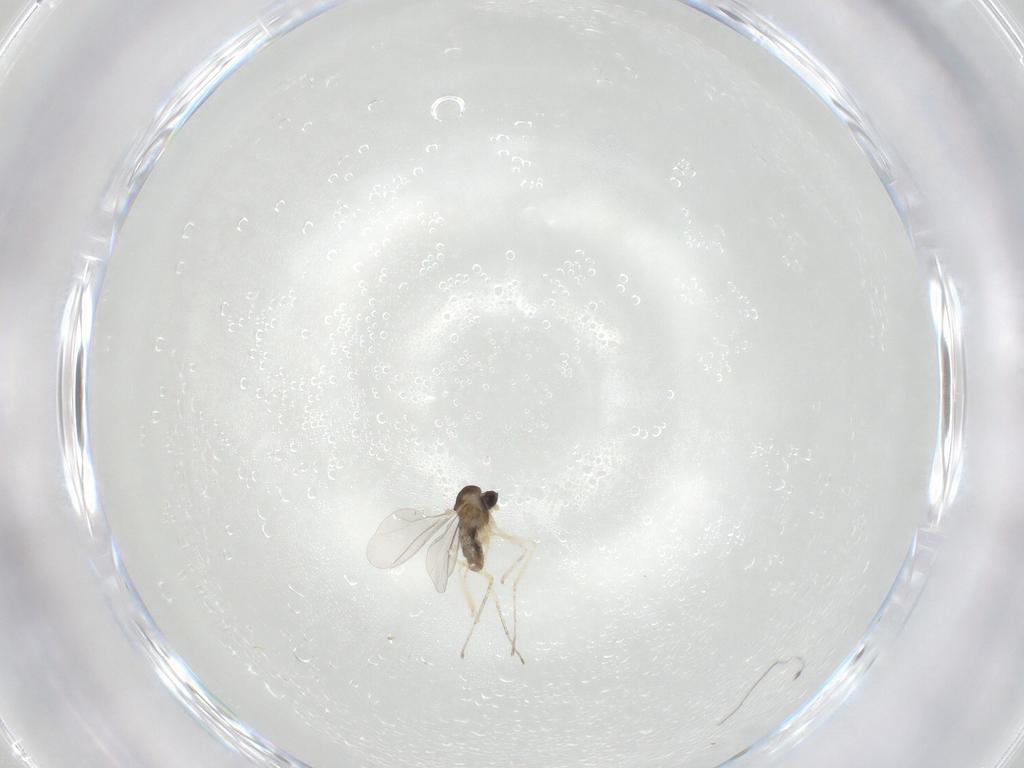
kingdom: Animalia
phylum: Arthropoda
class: Insecta
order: Diptera
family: Cecidomyiidae
